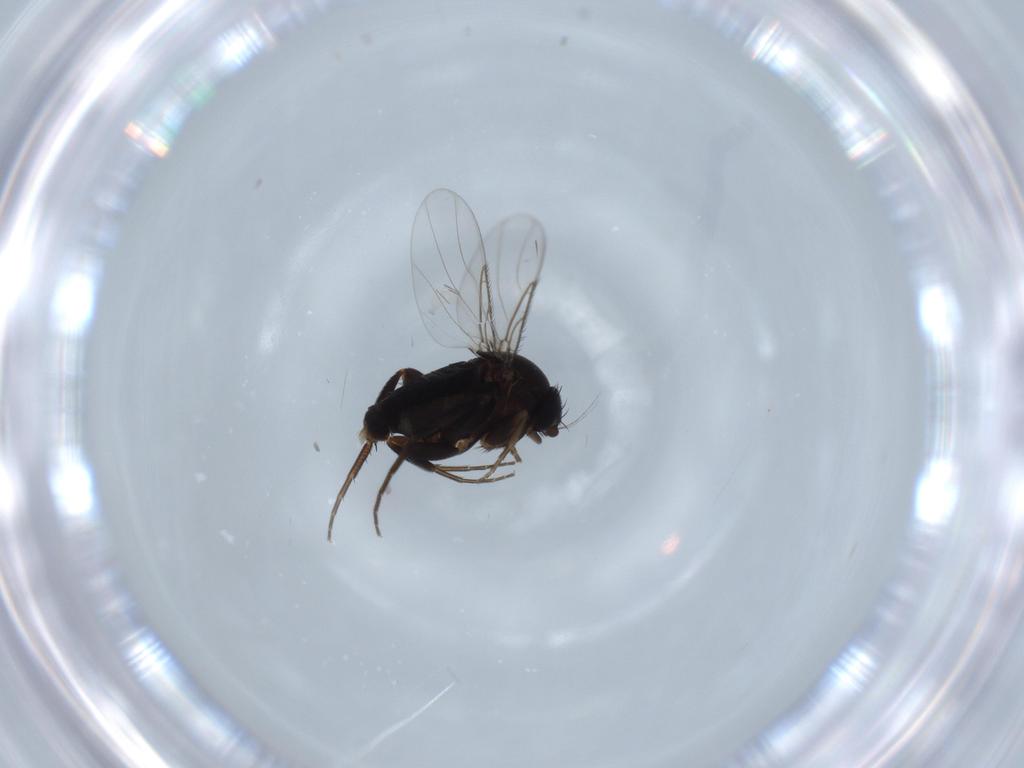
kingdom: Animalia
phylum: Arthropoda
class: Insecta
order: Diptera
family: Phoridae
